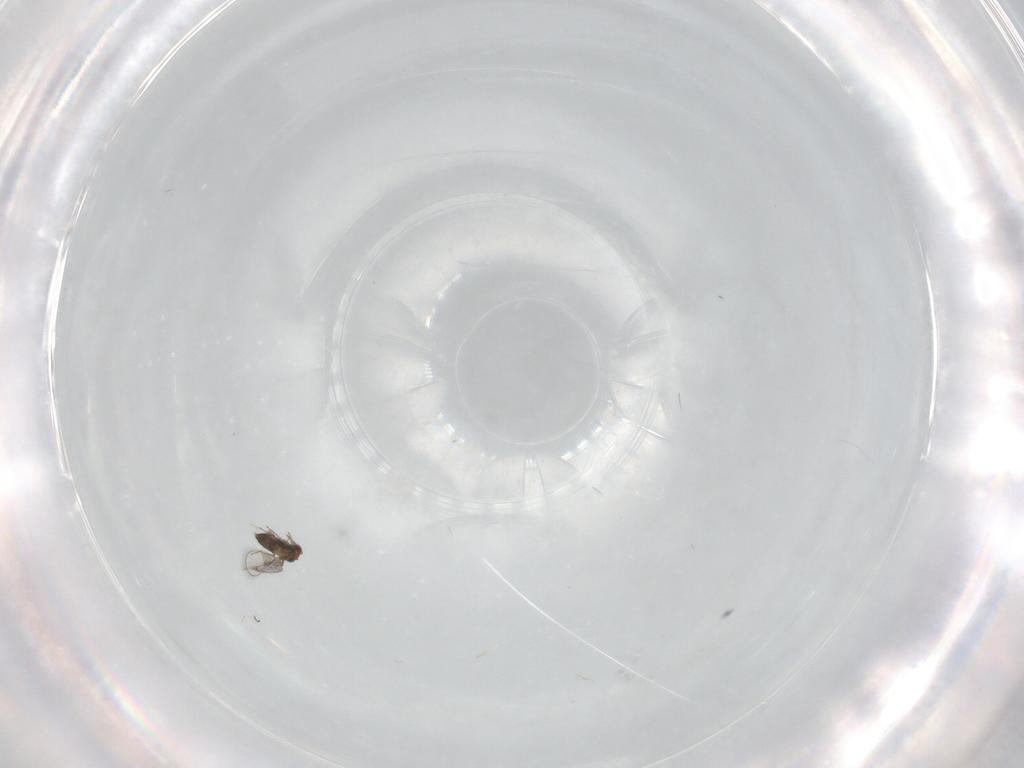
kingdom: Animalia
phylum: Arthropoda
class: Insecta
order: Hymenoptera
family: Trichogrammatidae
